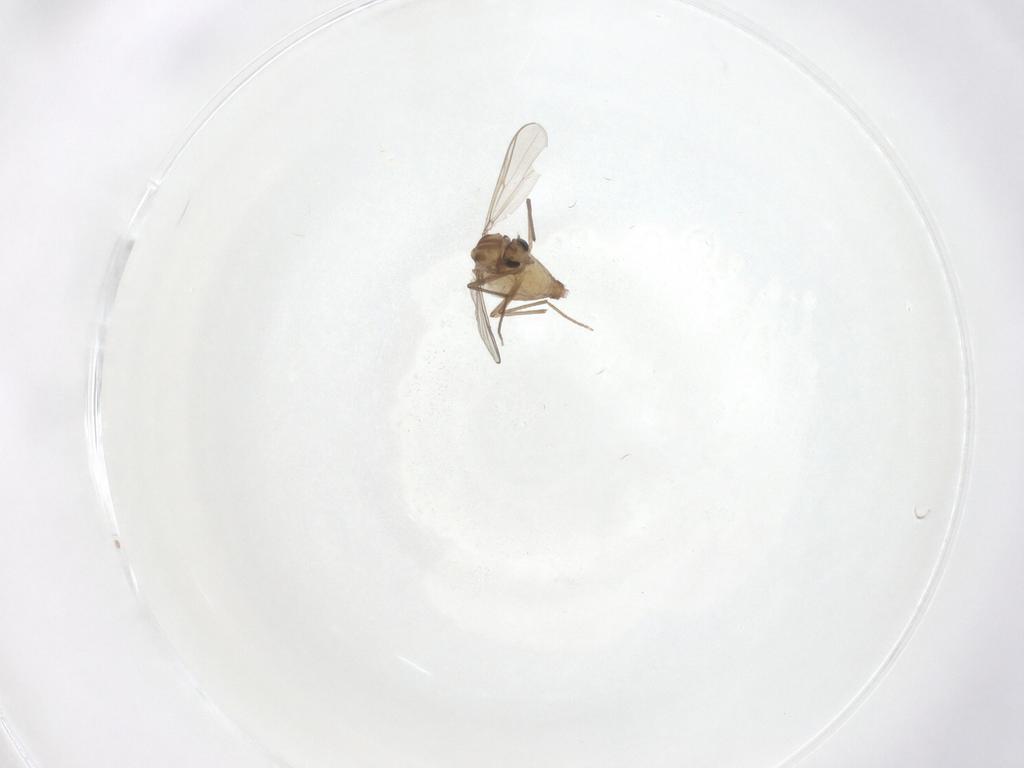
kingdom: Animalia
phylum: Arthropoda
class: Insecta
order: Diptera
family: Chironomidae
